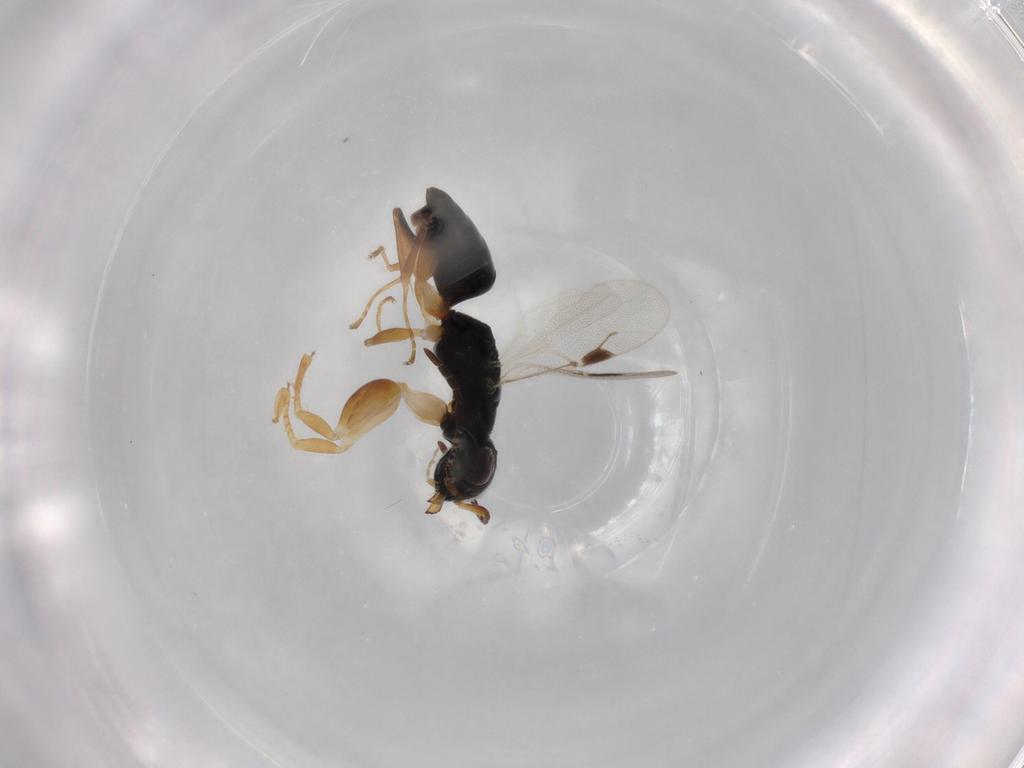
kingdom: Animalia
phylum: Arthropoda
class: Insecta
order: Hymenoptera
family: Dryinidae
